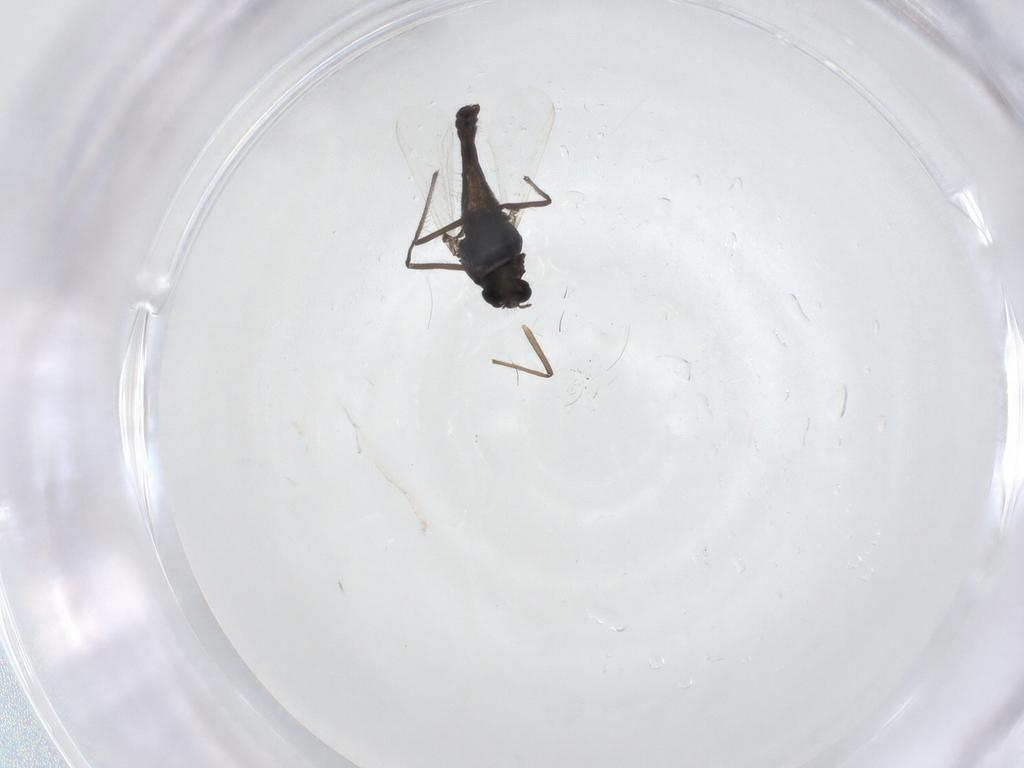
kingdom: Animalia
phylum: Arthropoda
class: Insecta
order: Diptera
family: Chironomidae
